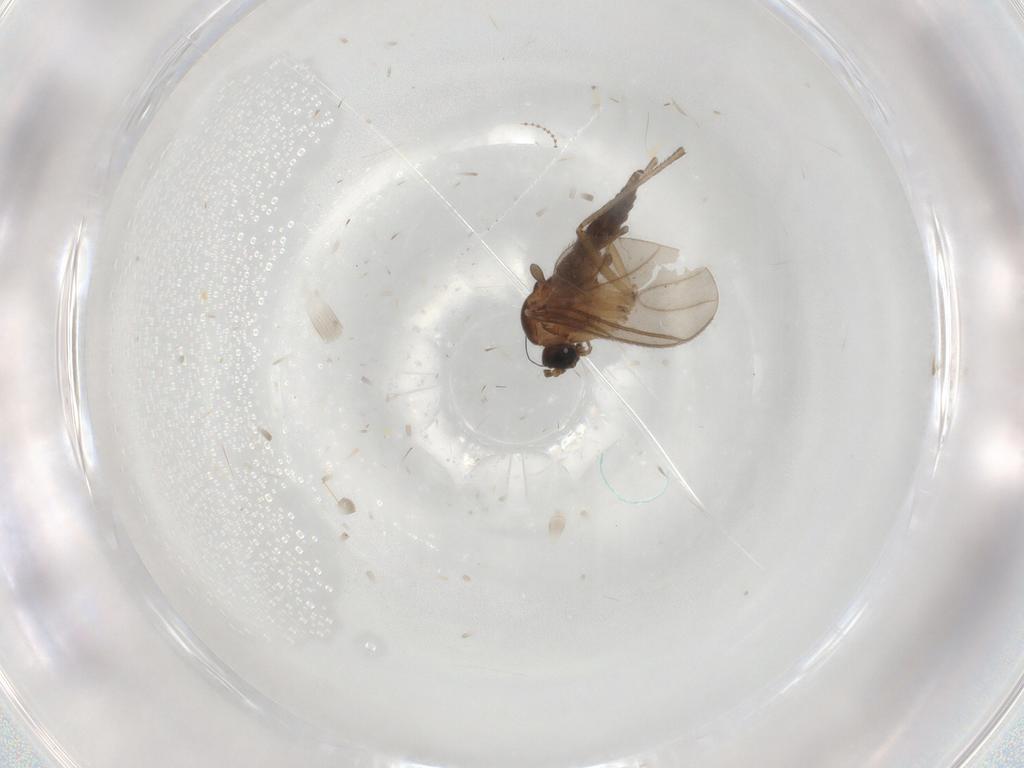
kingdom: Animalia
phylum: Arthropoda
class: Insecta
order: Diptera
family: Sciaridae
